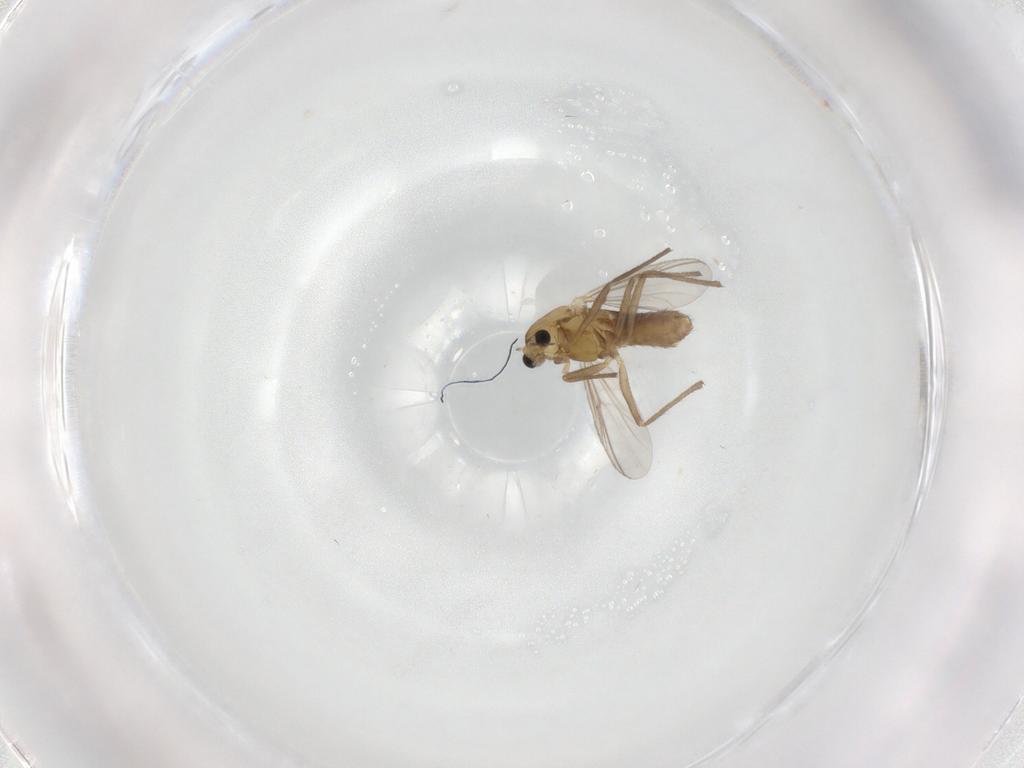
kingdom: Animalia
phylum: Arthropoda
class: Insecta
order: Diptera
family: Chironomidae
